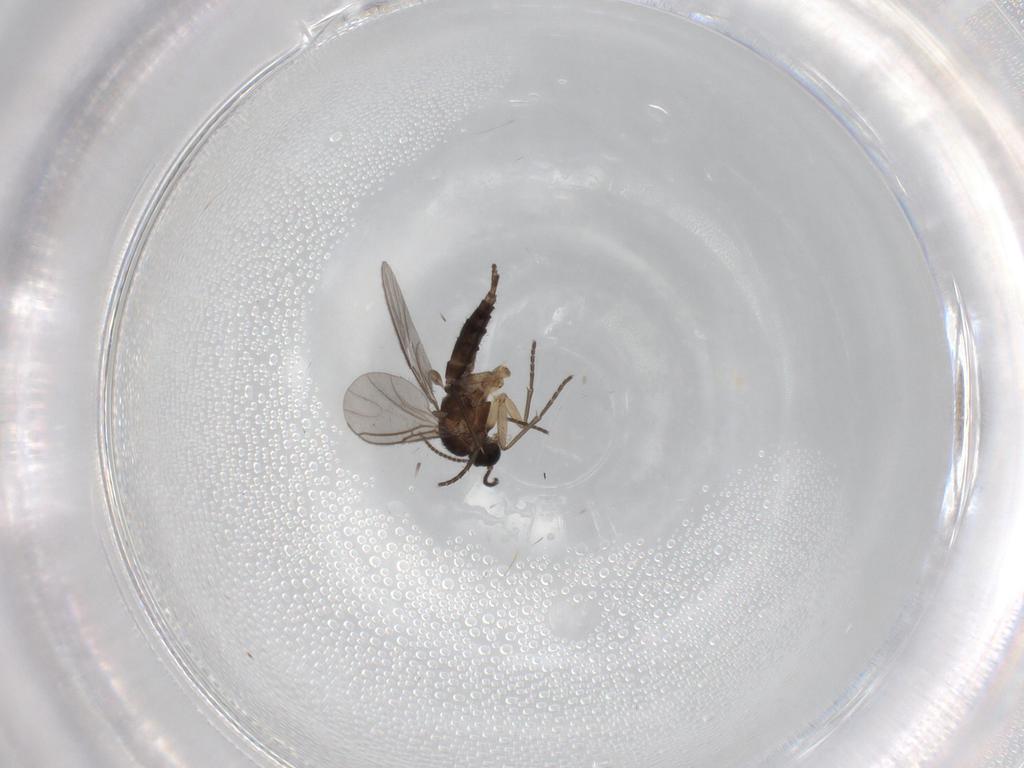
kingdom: Animalia
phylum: Arthropoda
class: Insecta
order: Diptera
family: Sciaridae
